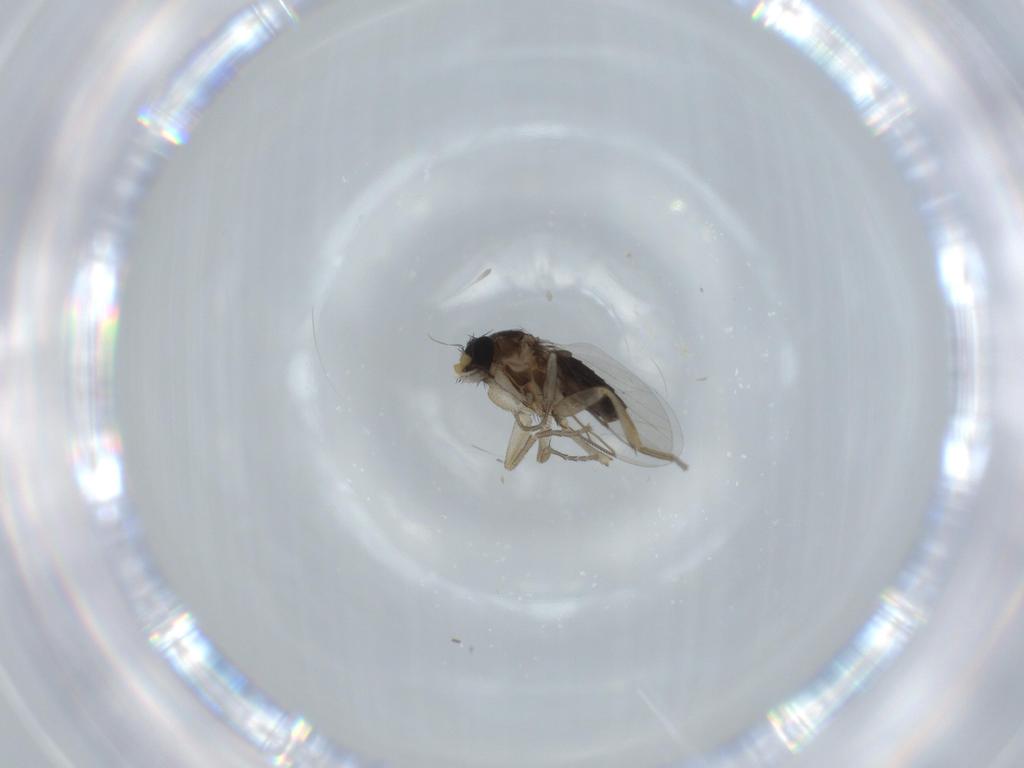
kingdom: Animalia
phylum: Arthropoda
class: Insecta
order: Diptera
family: Phoridae
